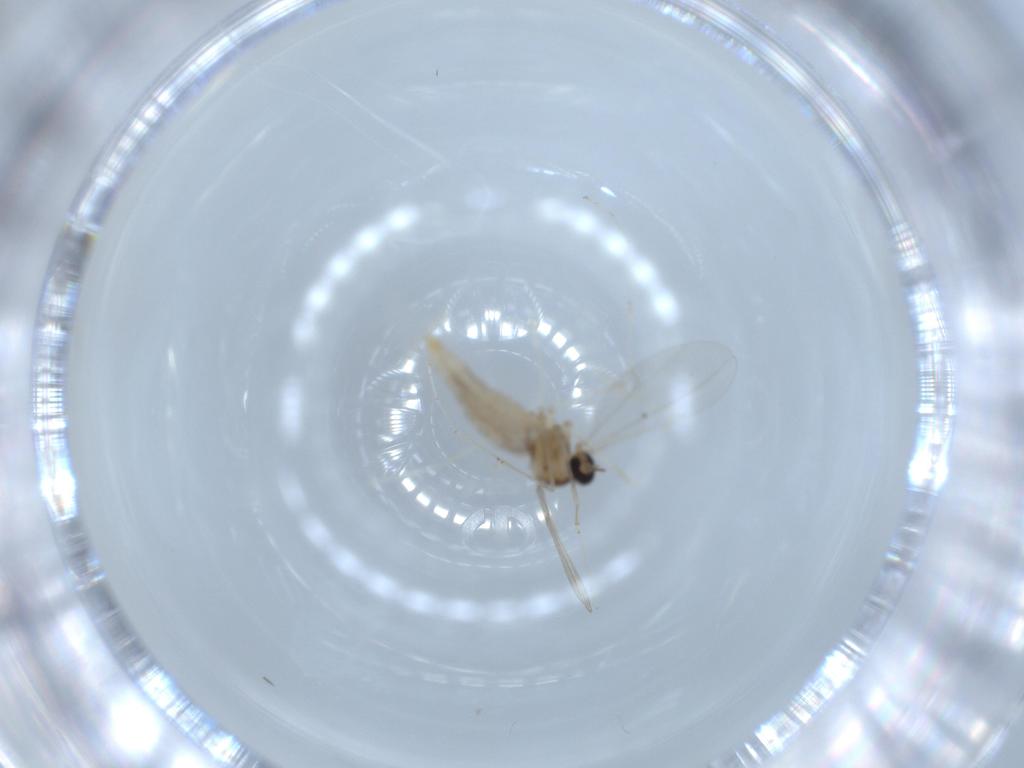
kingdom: Animalia
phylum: Arthropoda
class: Insecta
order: Diptera
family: Cecidomyiidae
